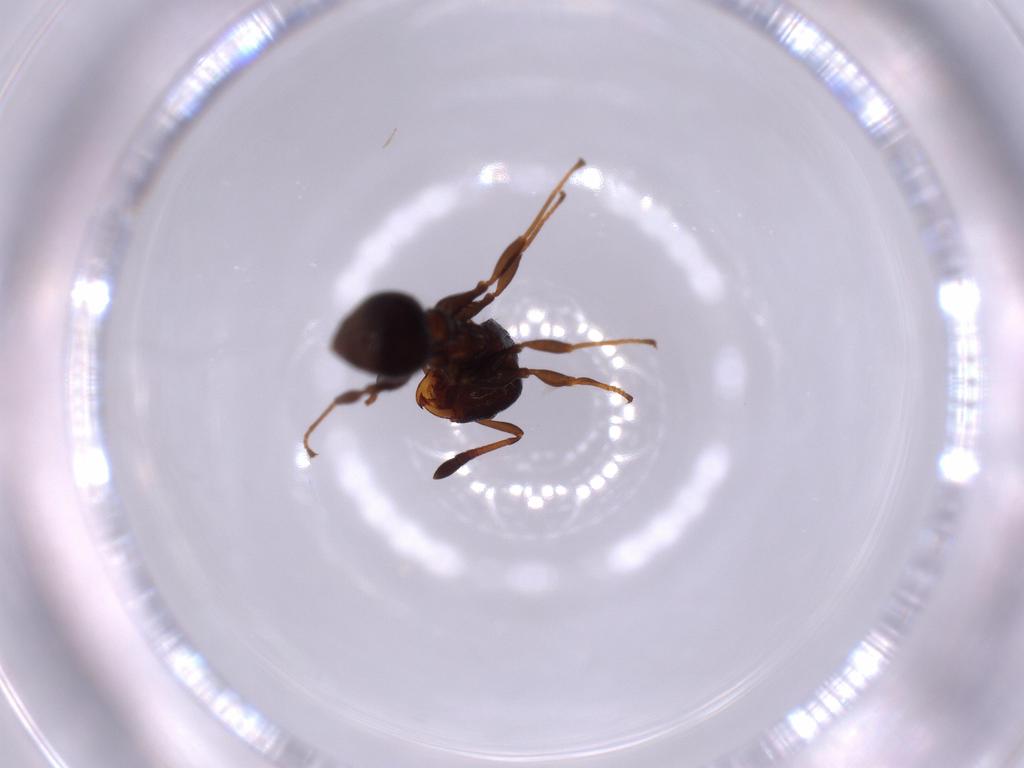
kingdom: Animalia
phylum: Arthropoda
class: Insecta
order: Hymenoptera
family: Formicidae
